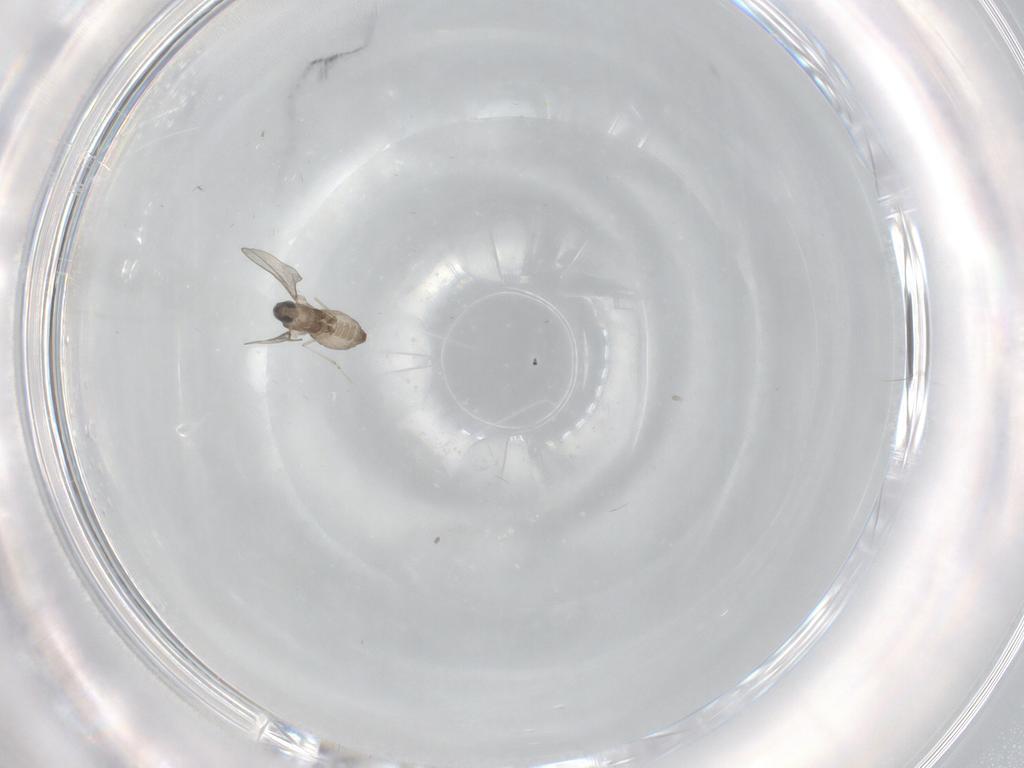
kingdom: Animalia
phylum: Arthropoda
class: Insecta
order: Diptera
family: Cecidomyiidae
